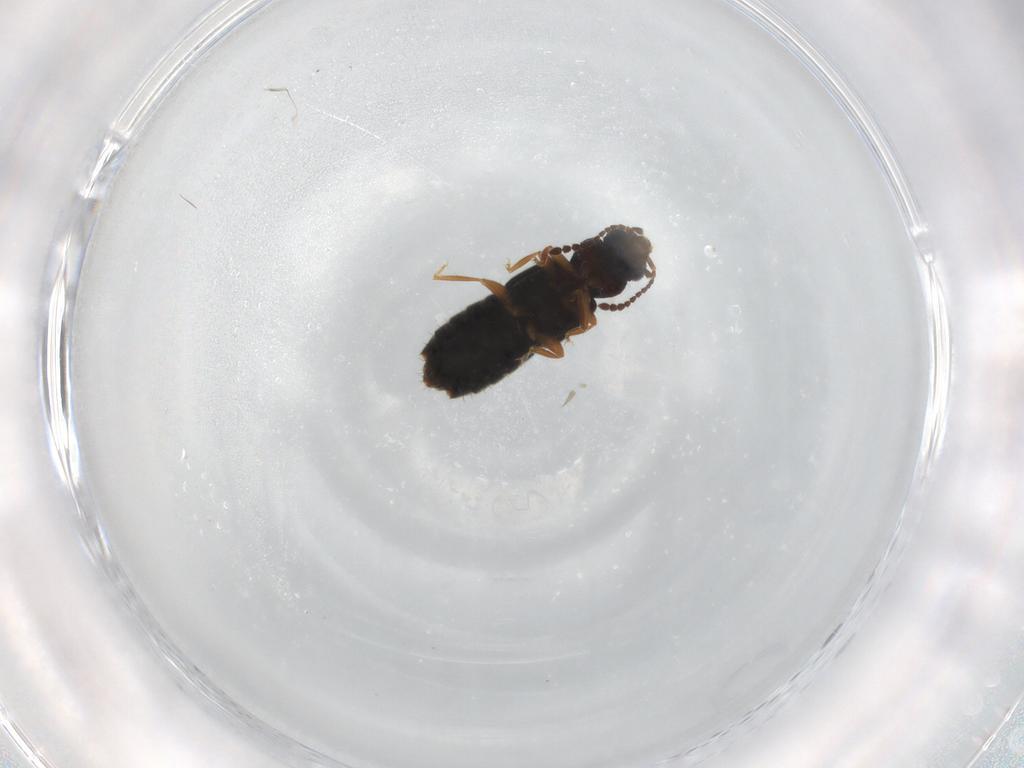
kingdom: Animalia
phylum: Arthropoda
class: Insecta
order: Coleoptera
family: Staphylinidae
